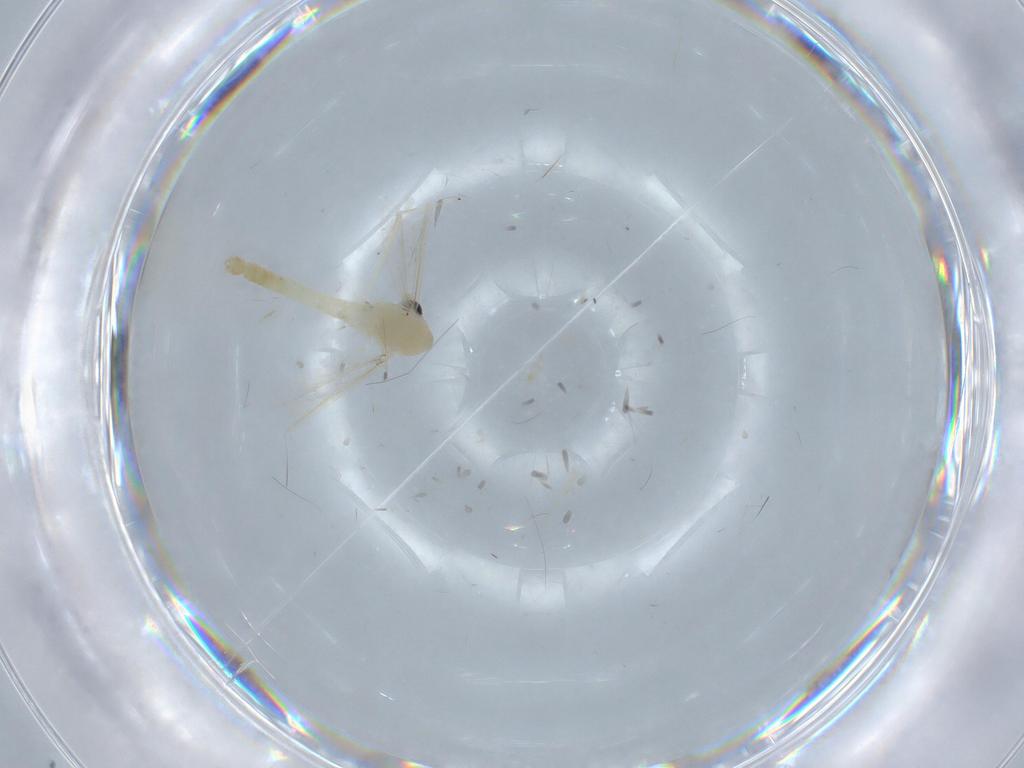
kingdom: Animalia
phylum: Arthropoda
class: Insecta
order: Diptera
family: Chironomidae
